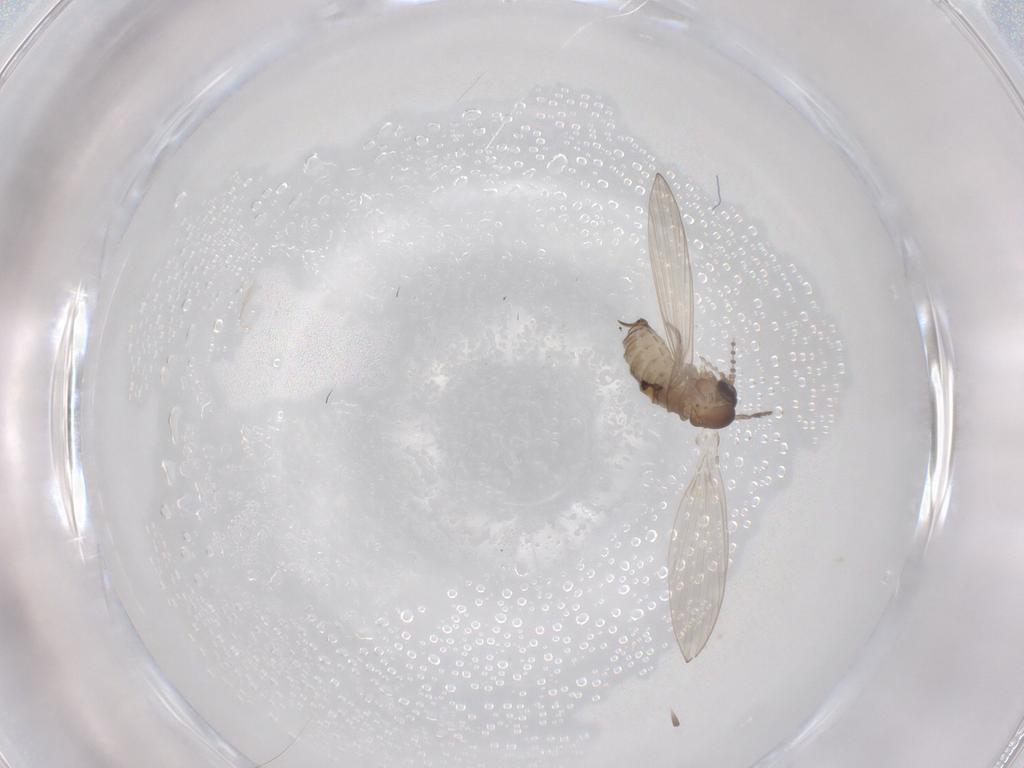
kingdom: Animalia
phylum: Arthropoda
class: Insecta
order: Diptera
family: Psychodidae
